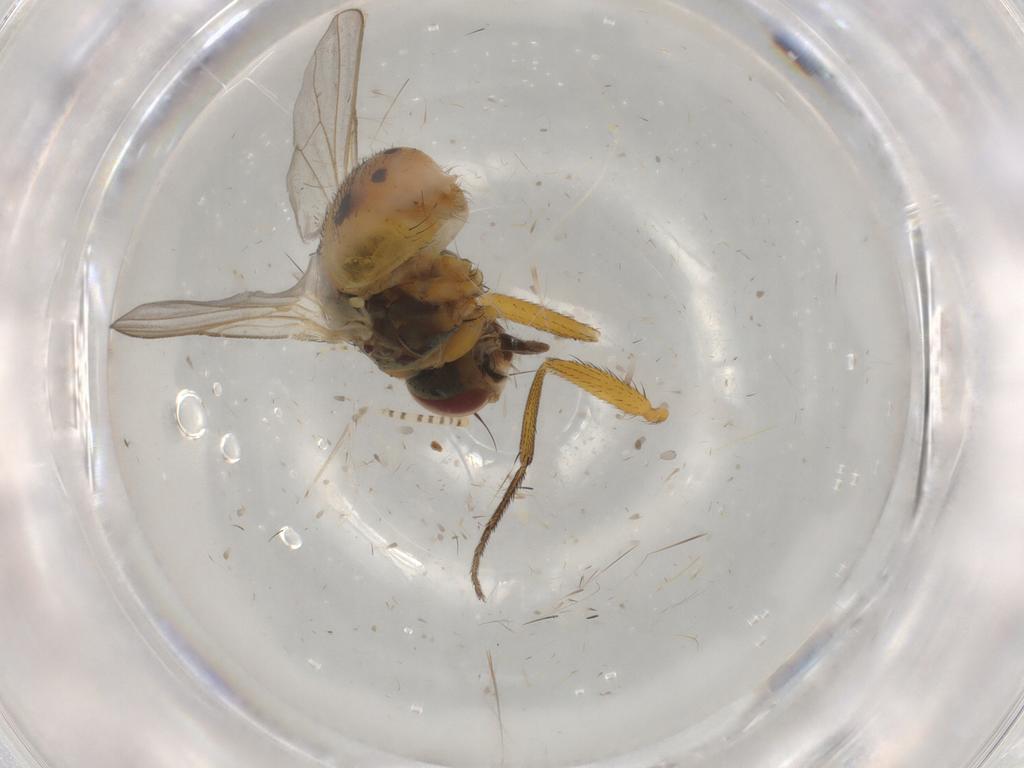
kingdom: Animalia
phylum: Arthropoda
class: Insecta
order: Diptera
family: Muscidae
